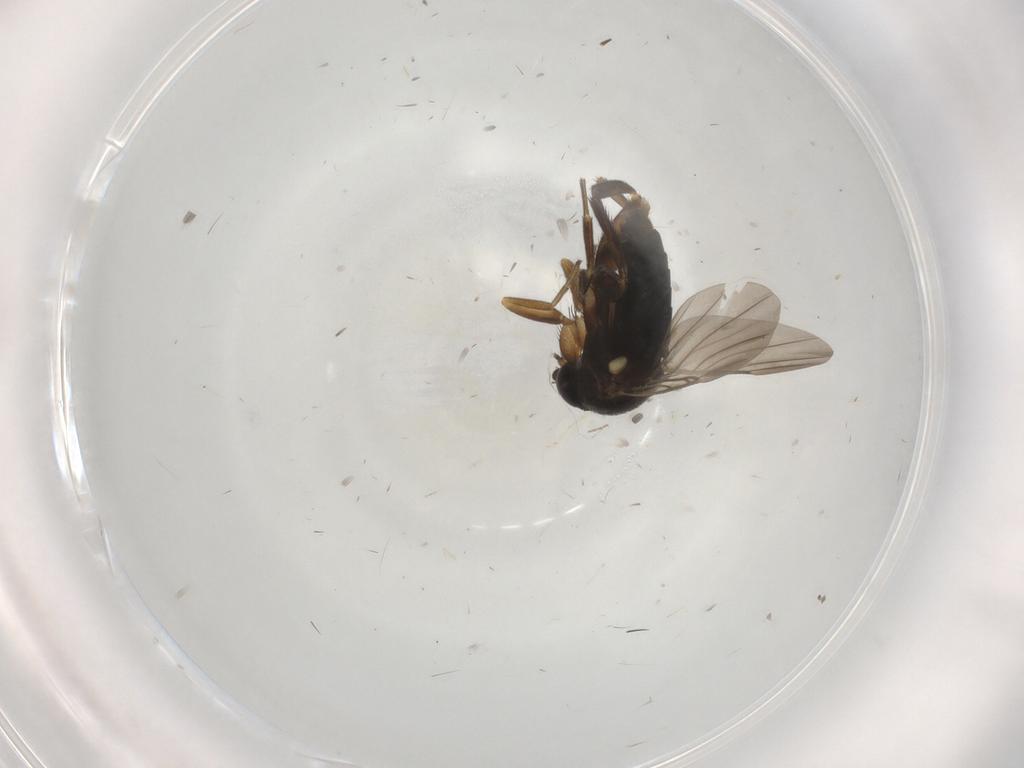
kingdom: Animalia
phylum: Arthropoda
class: Insecta
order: Diptera
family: Phoridae
